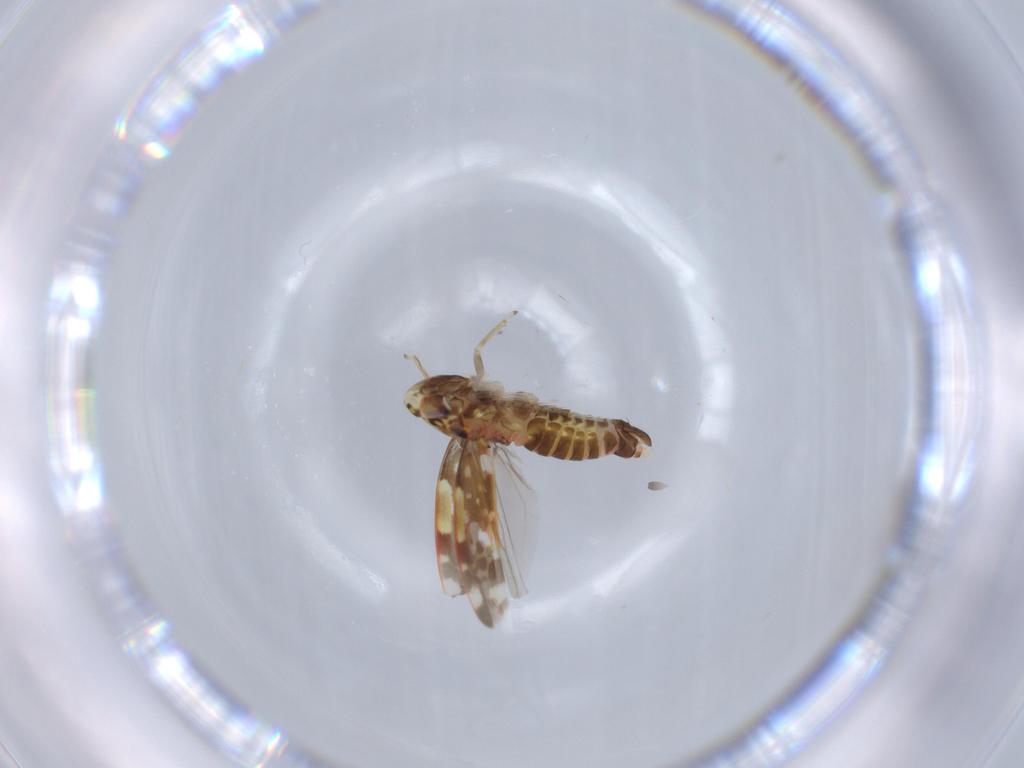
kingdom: Animalia
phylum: Arthropoda
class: Insecta
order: Hemiptera
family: Cicadellidae
